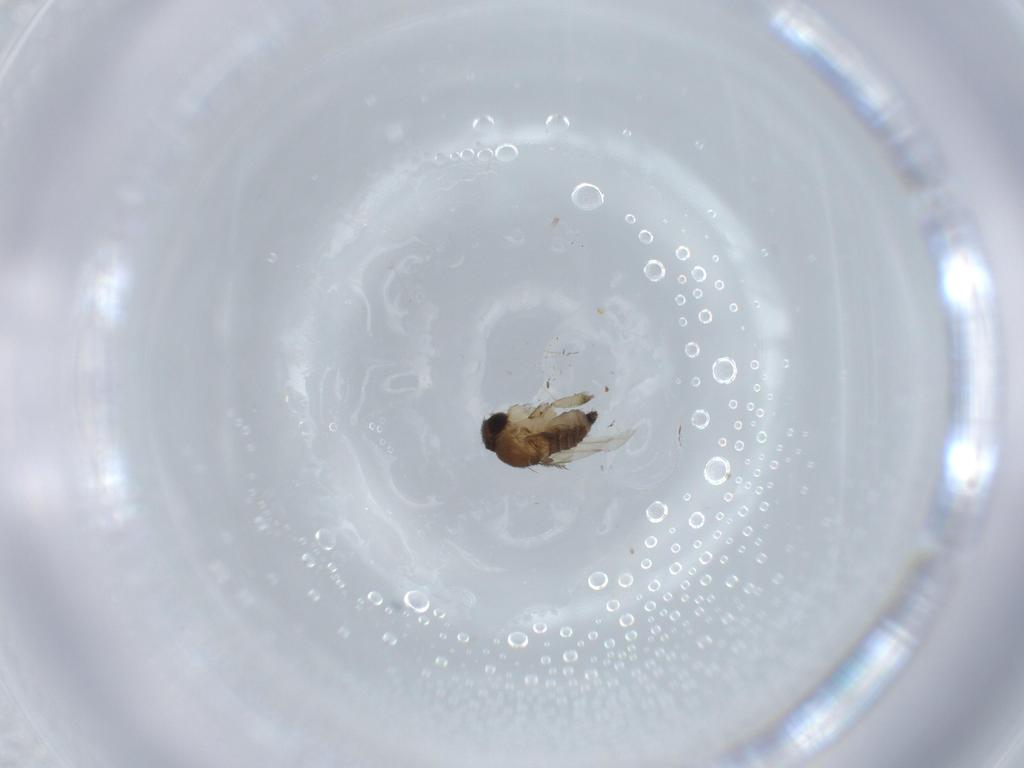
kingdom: Animalia
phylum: Arthropoda
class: Insecta
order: Diptera
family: Phoridae
